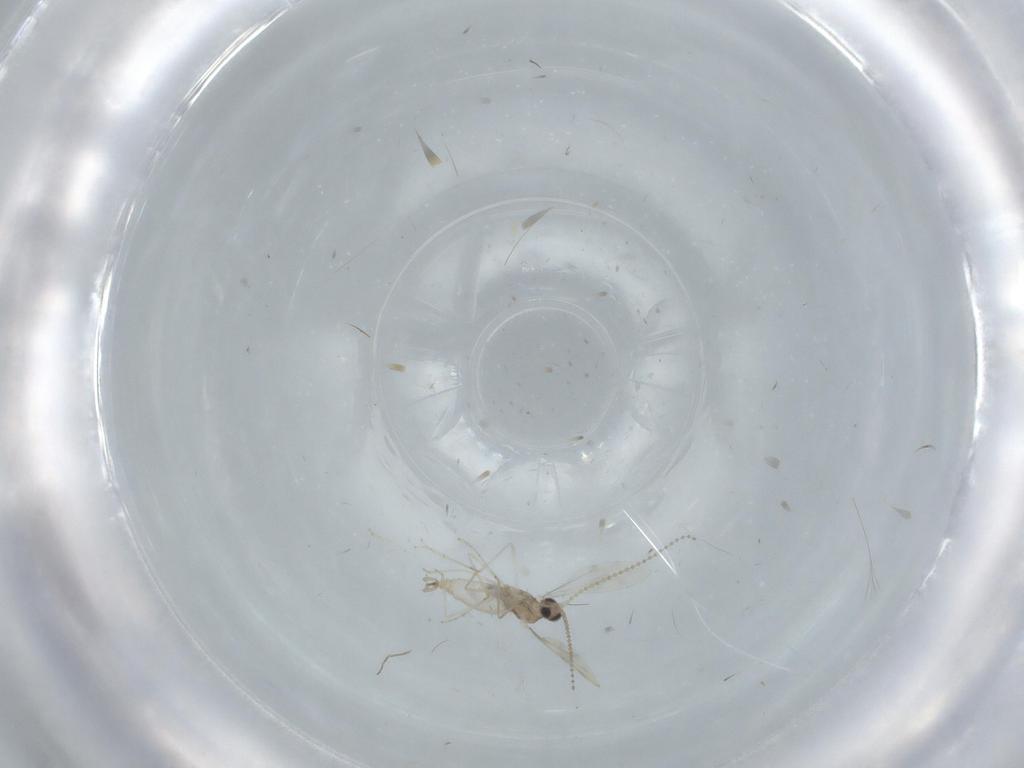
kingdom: Animalia
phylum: Arthropoda
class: Insecta
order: Diptera
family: Cecidomyiidae
